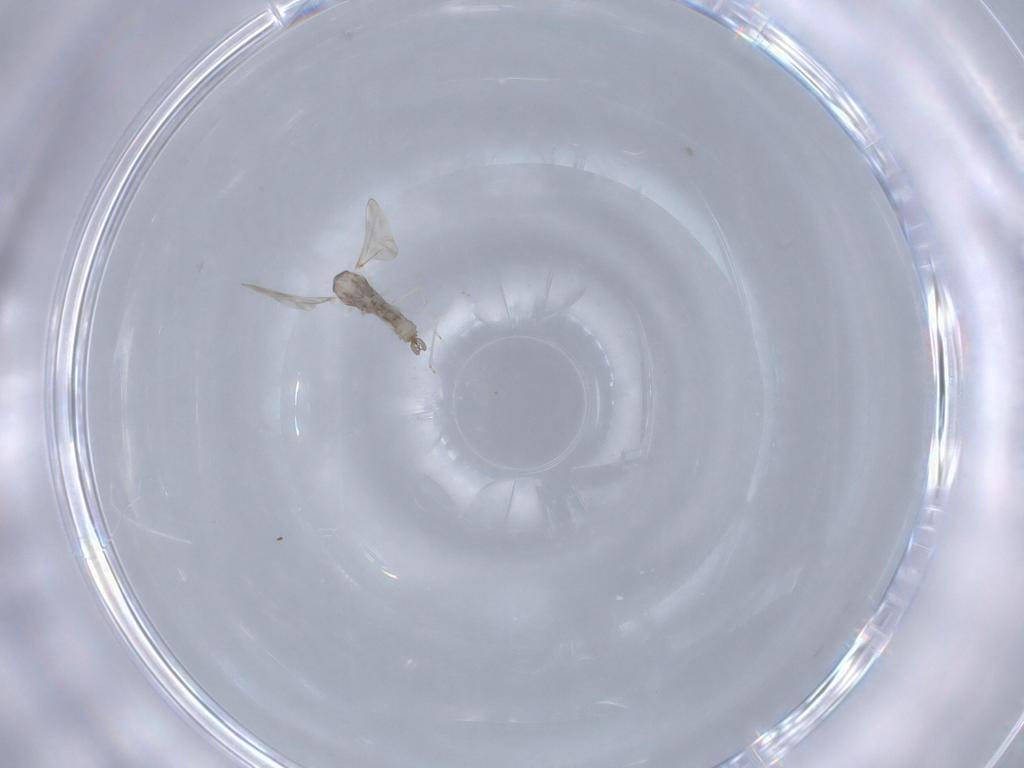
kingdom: Animalia
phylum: Arthropoda
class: Insecta
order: Diptera
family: Cecidomyiidae
